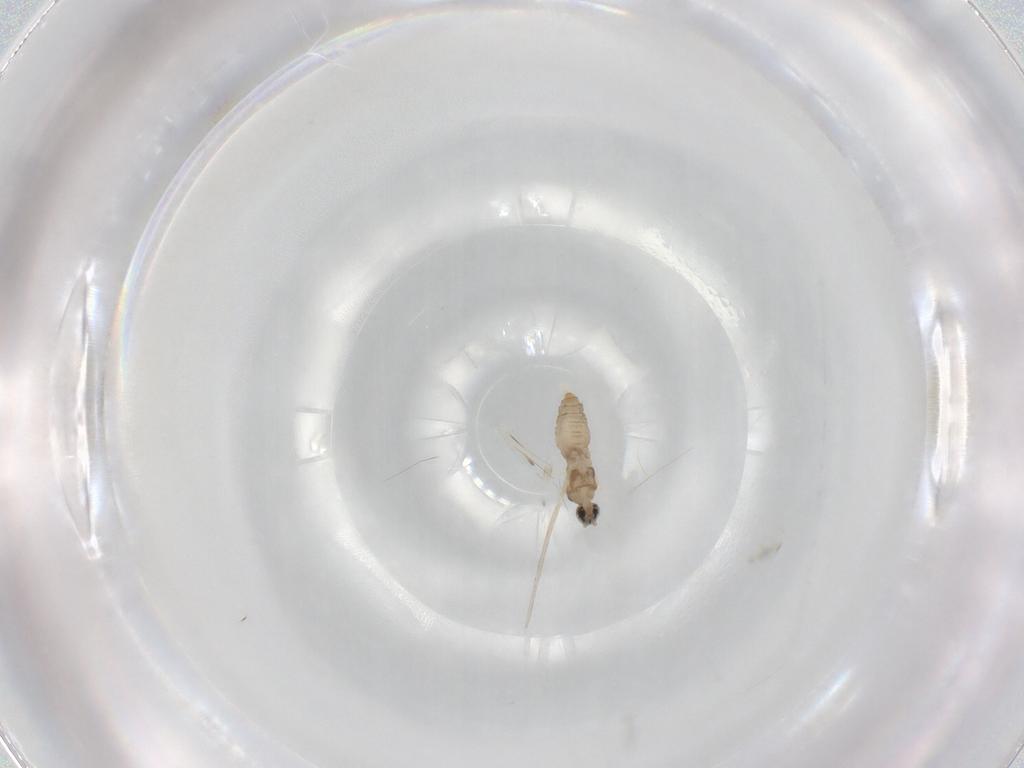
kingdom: Animalia
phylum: Arthropoda
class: Insecta
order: Diptera
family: Cecidomyiidae
